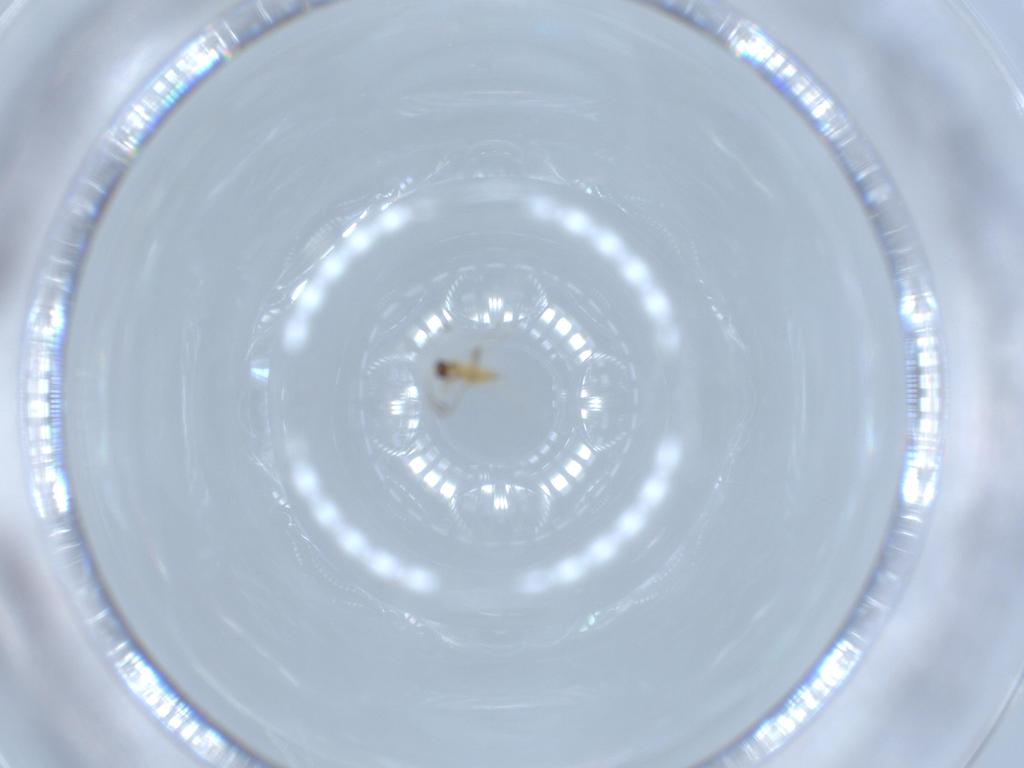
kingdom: Animalia
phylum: Arthropoda
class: Insecta
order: Hymenoptera
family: Mymaridae
